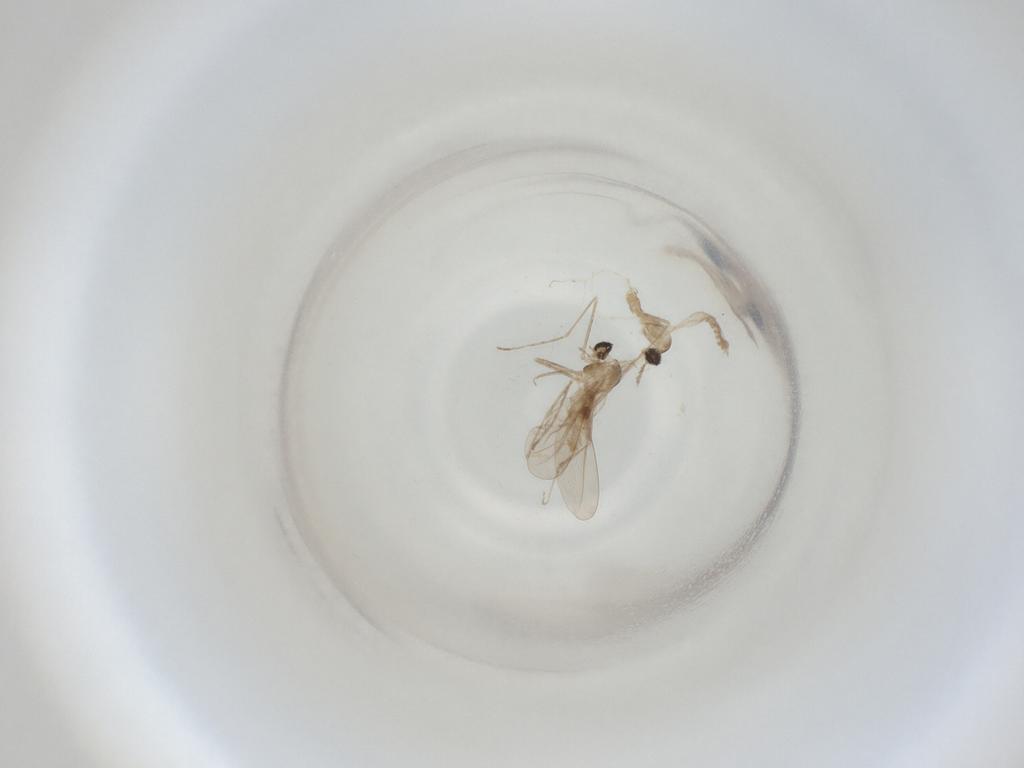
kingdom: Animalia
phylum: Arthropoda
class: Insecta
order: Diptera
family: Cecidomyiidae
